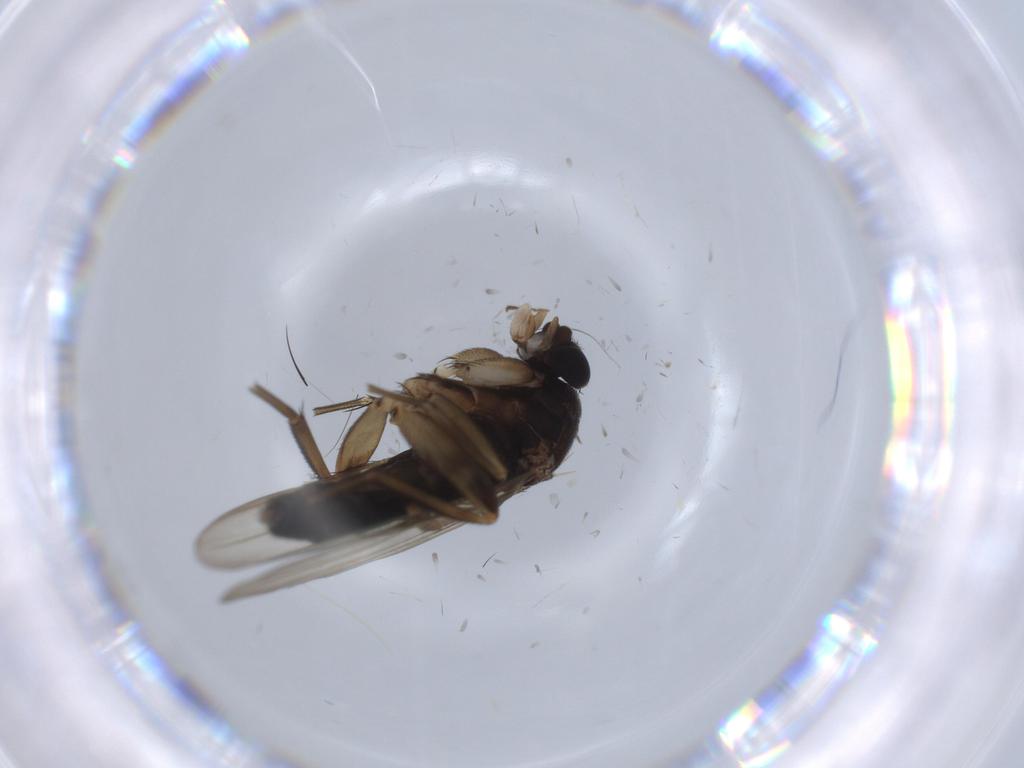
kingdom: Animalia
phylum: Arthropoda
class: Insecta
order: Diptera
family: Phoridae
